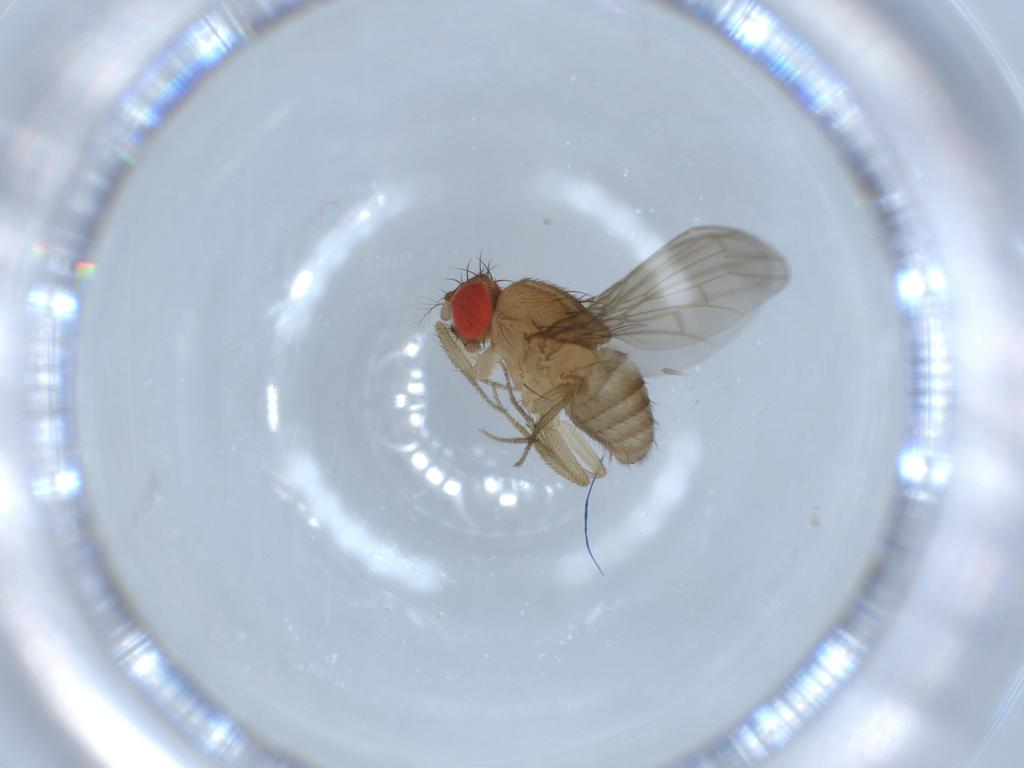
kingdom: Animalia
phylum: Arthropoda
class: Insecta
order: Diptera
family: Drosophilidae
